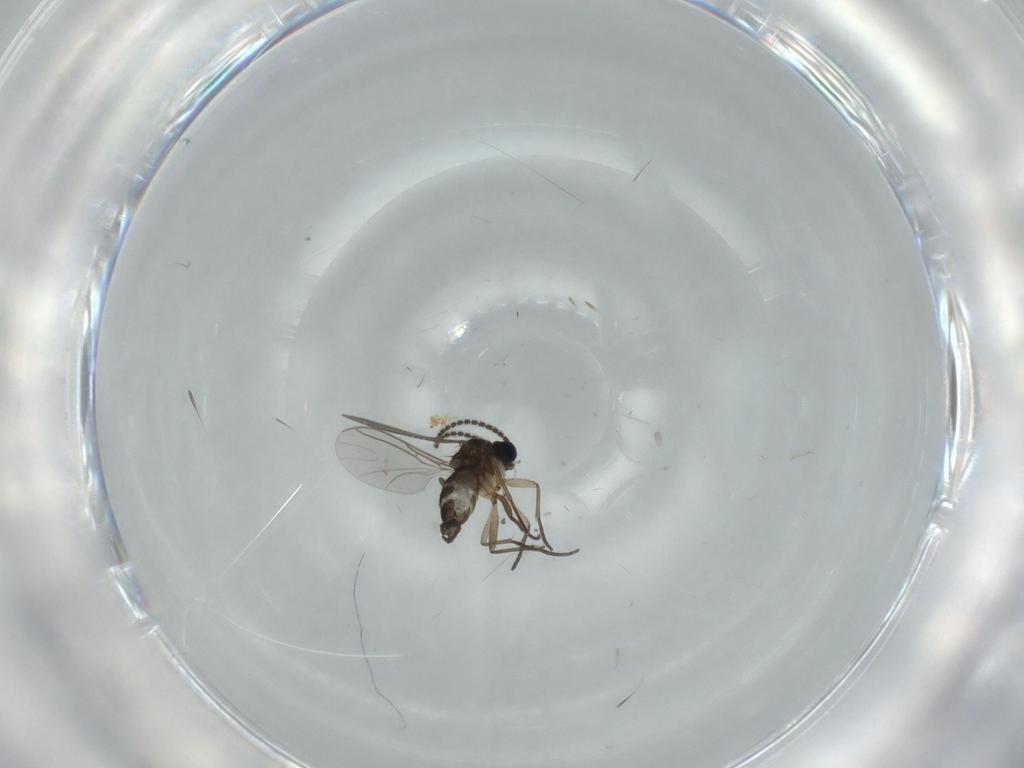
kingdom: Animalia
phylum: Arthropoda
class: Insecta
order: Diptera
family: Sciaridae
